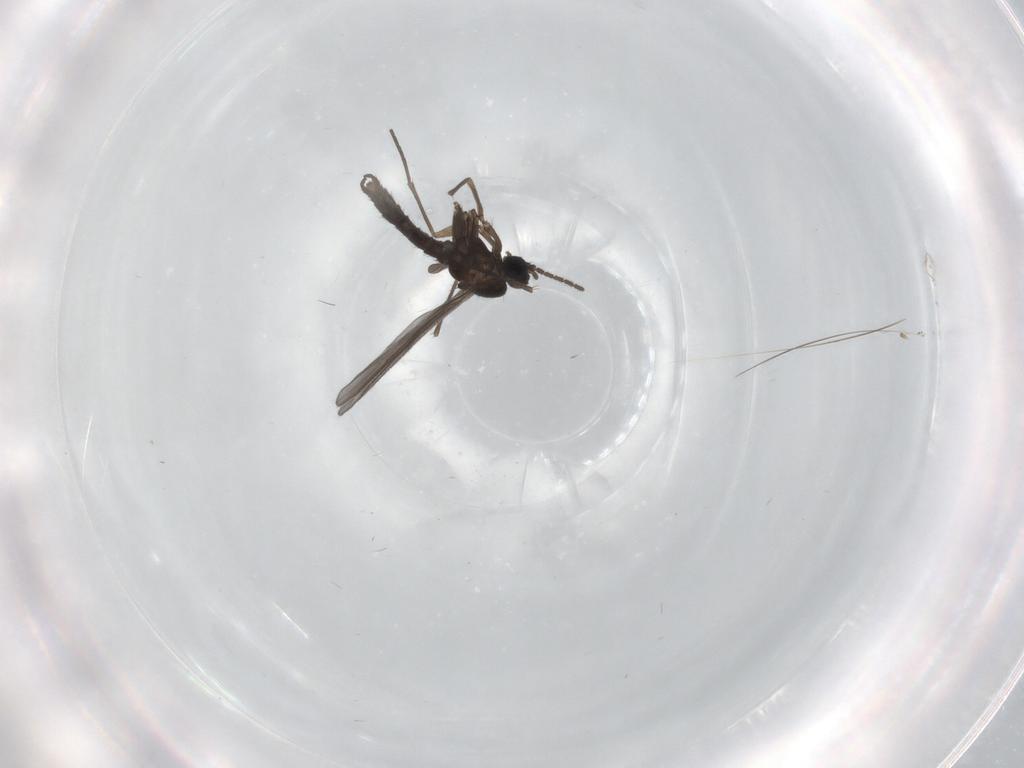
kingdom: Animalia
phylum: Arthropoda
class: Insecta
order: Diptera
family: Sciaridae
